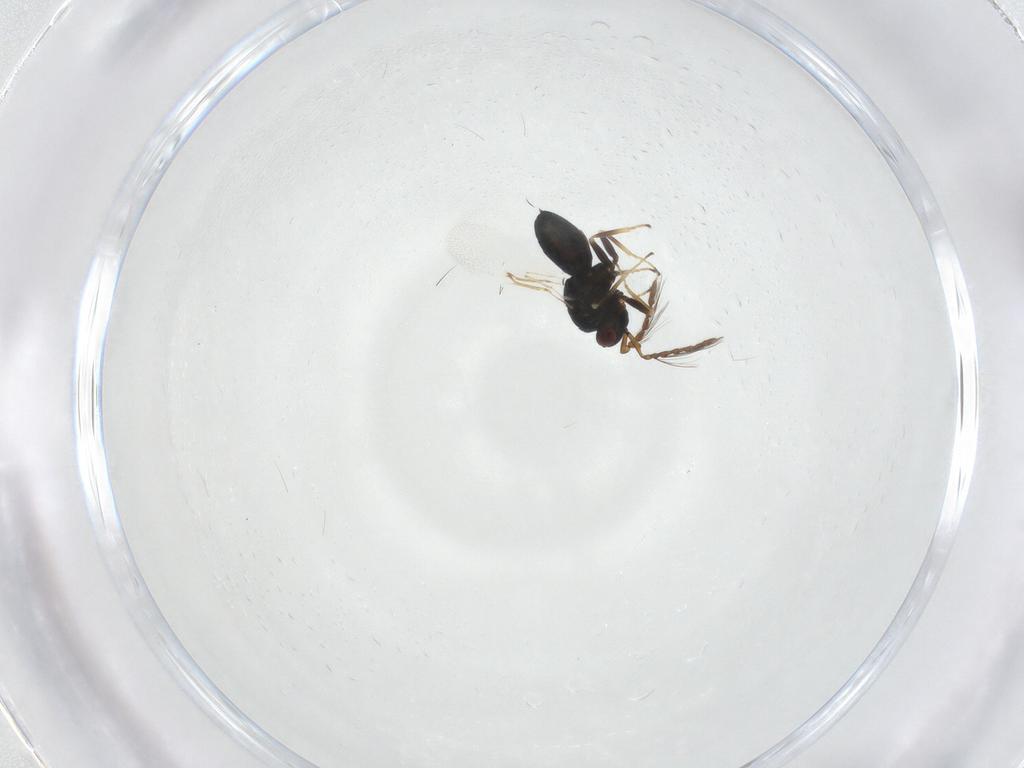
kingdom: Animalia
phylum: Arthropoda
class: Insecta
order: Hymenoptera
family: Eulophidae
